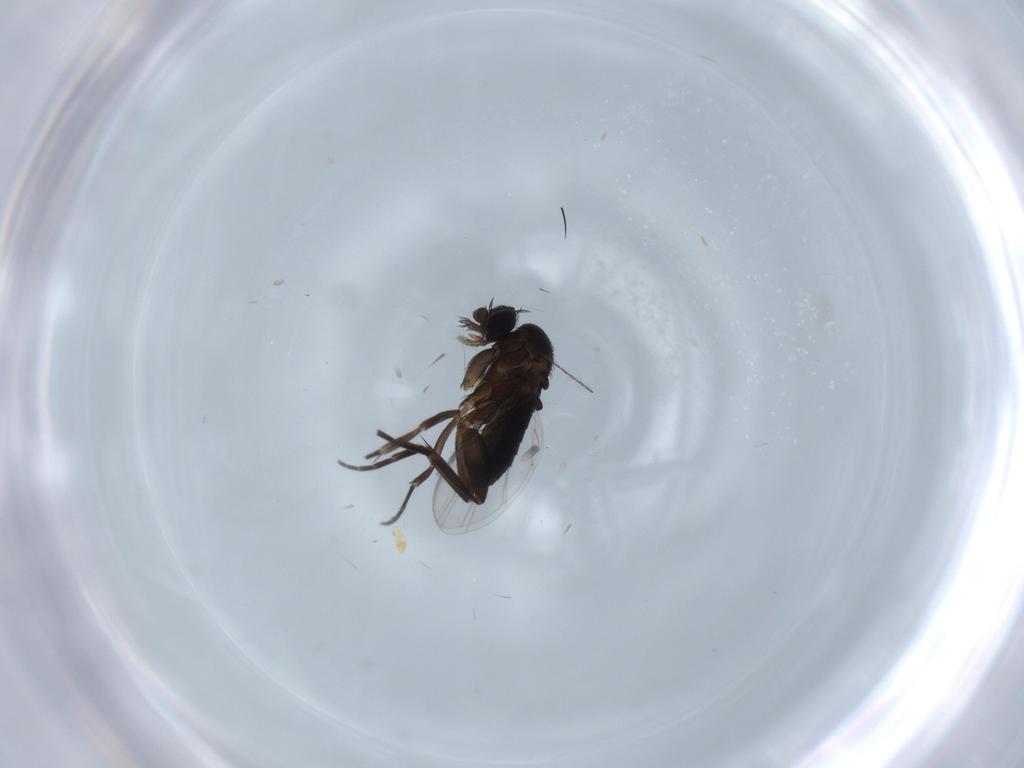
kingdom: Animalia
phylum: Arthropoda
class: Insecta
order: Diptera
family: Phoridae
